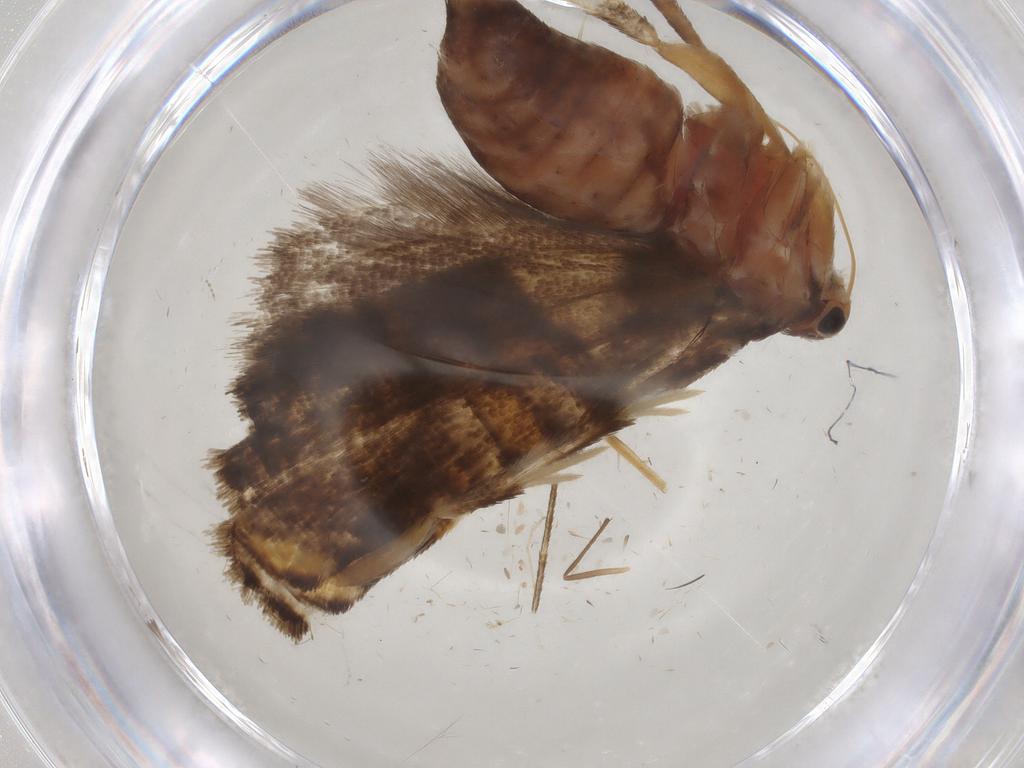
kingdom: Animalia
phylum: Arthropoda
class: Insecta
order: Lepidoptera
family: Glyphipterigidae
